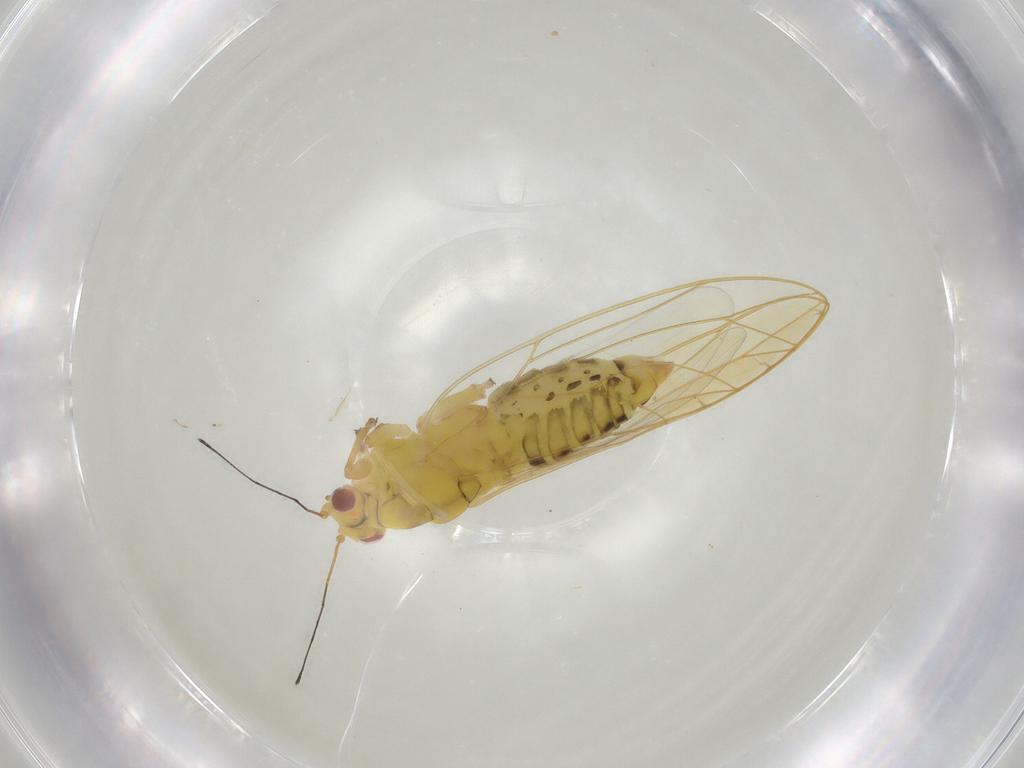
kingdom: Animalia
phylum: Arthropoda
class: Insecta
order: Hemiptera
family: Triozidae
